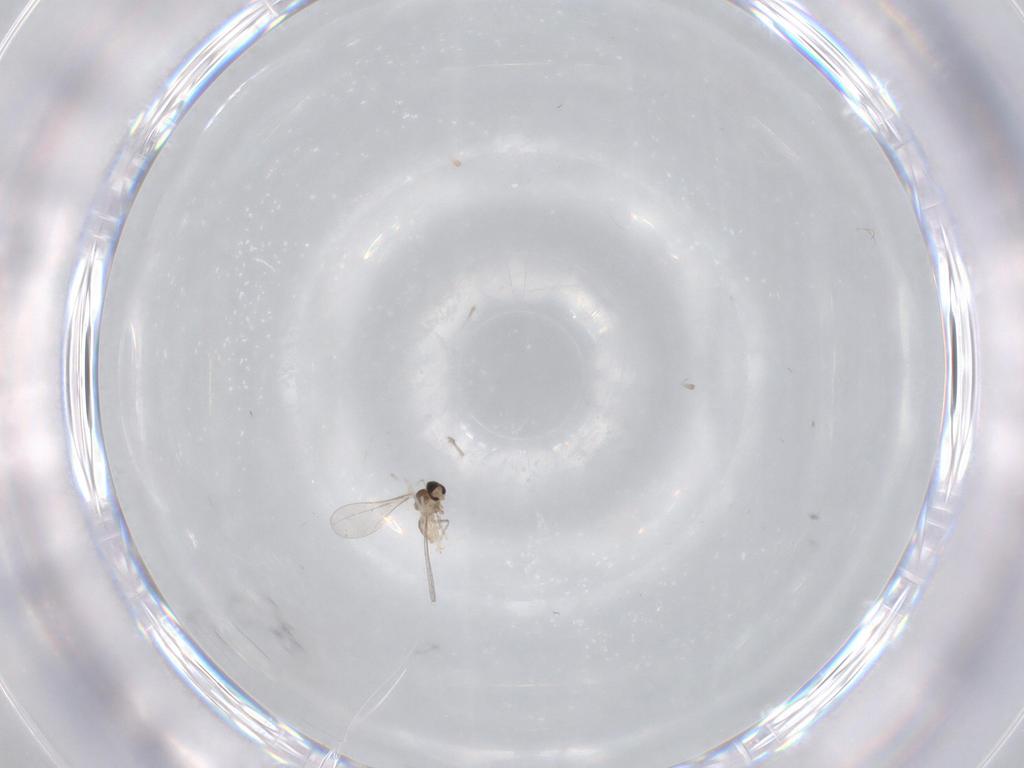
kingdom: Animalia
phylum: Arthropoda
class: Insecta
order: Diptera
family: Cecidomyiidae
